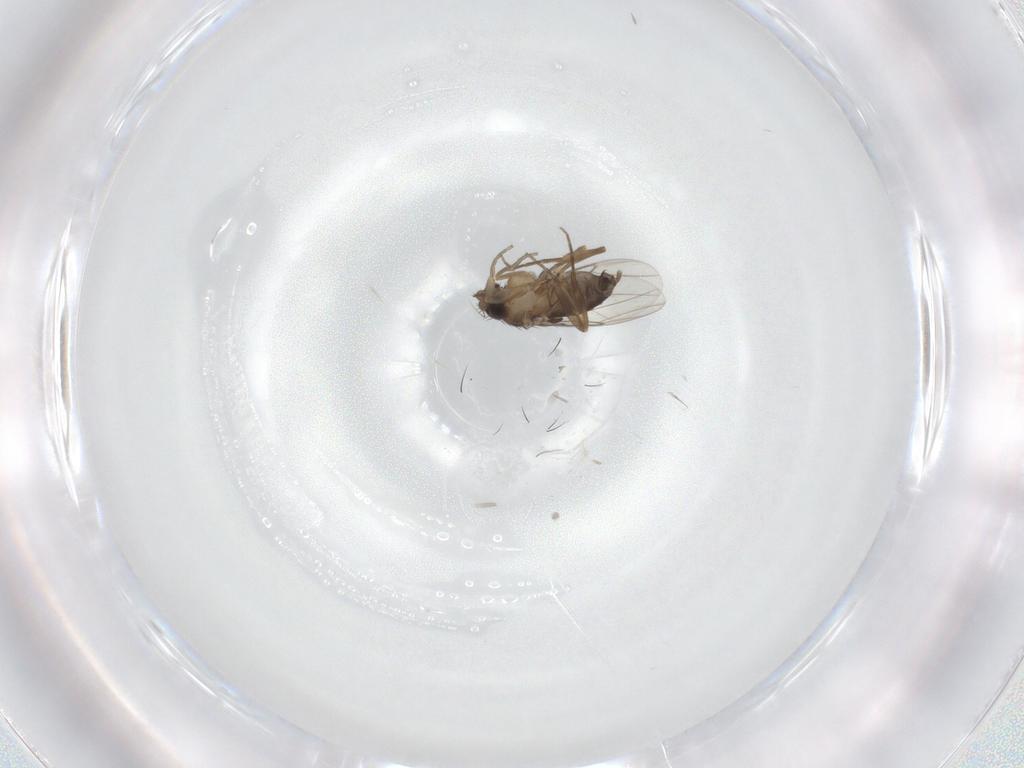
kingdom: Animalia
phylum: Arthropoda
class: Insecta
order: Diptera
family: Phoridae
